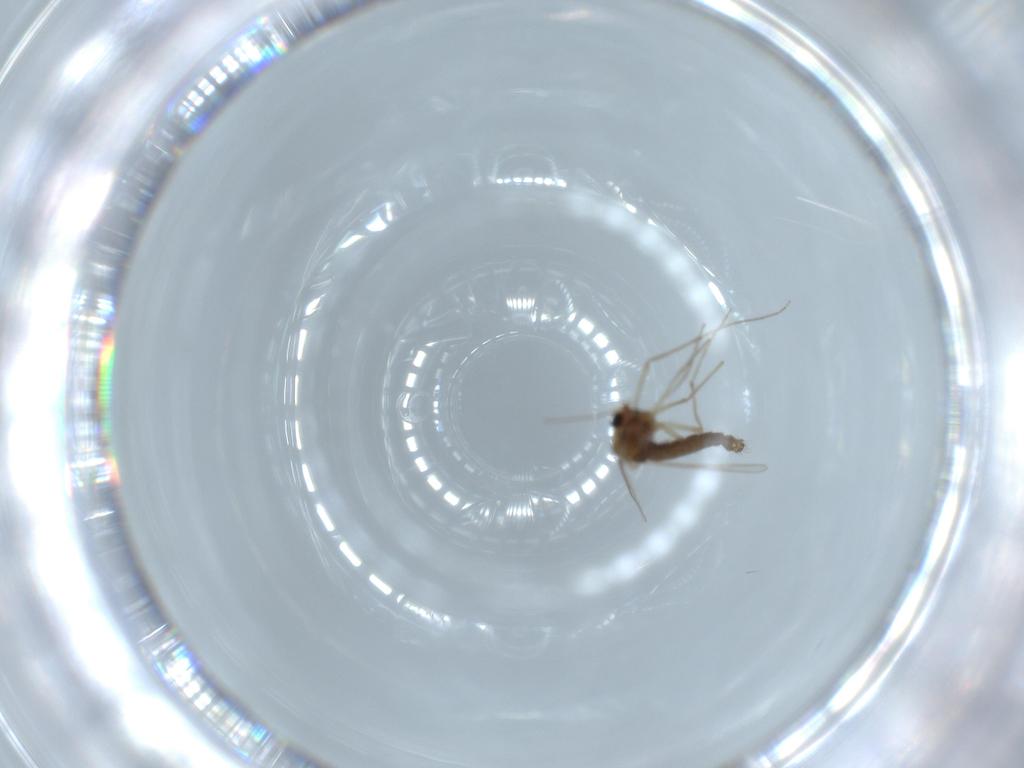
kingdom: Animalia
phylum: Arthropoda
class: Insecta
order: Diptera
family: Chironomidae
